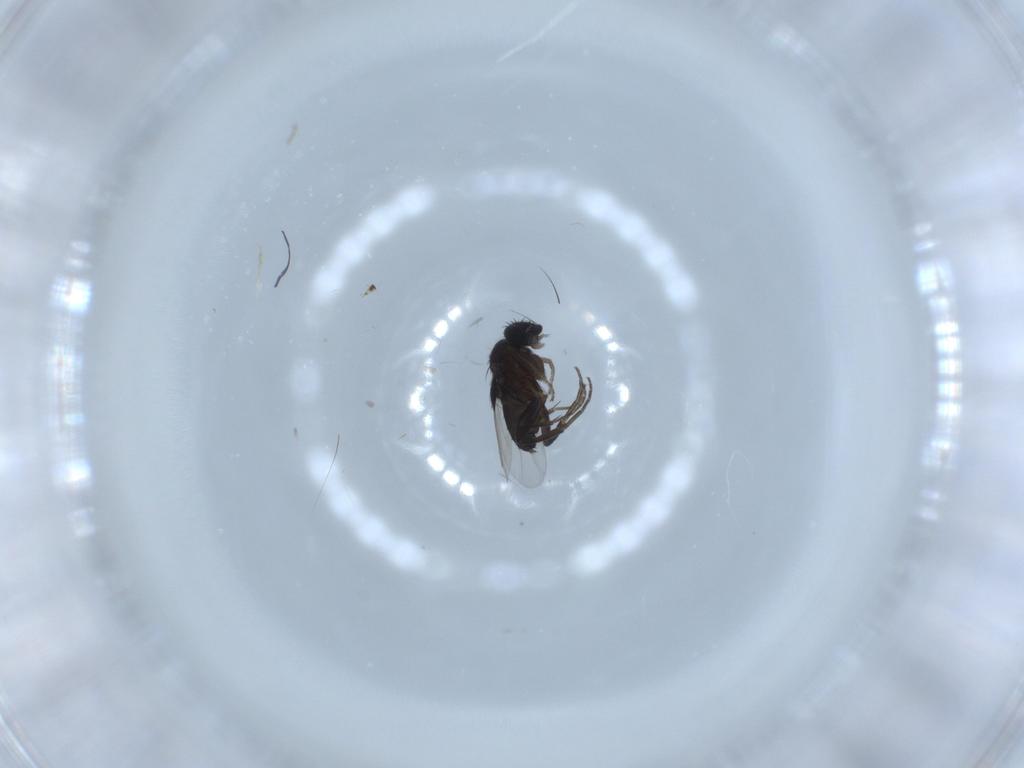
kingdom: Animalia
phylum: Arthropoda
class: Insecta
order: Diptera
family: Phoridae
